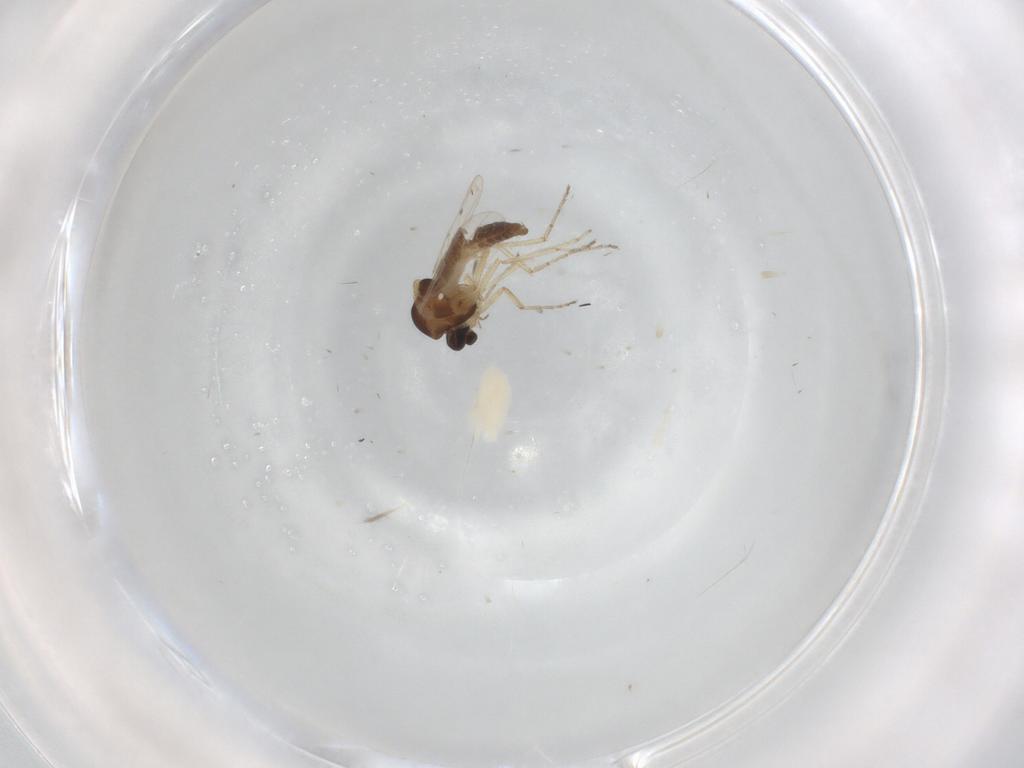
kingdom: Animalia
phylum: Arthropoda
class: Insecta
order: Diptera
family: Ceratopogonidae
